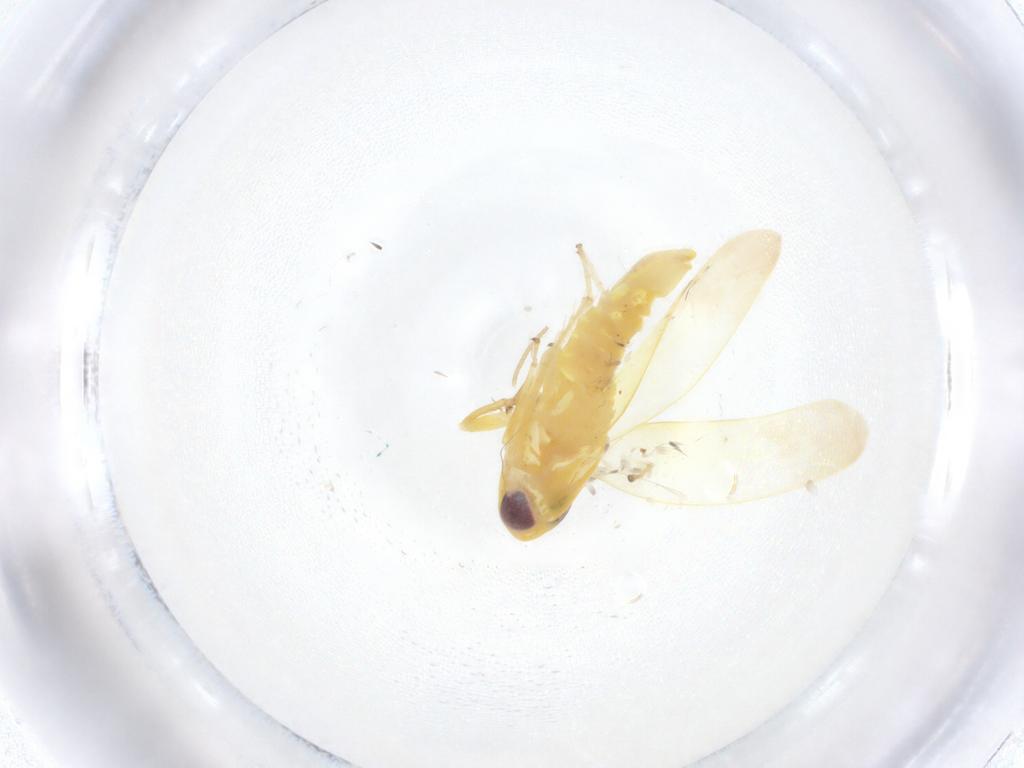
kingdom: Animalia
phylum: Arthropoda
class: Insecta
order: Hemiptera
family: Cicadellidae
